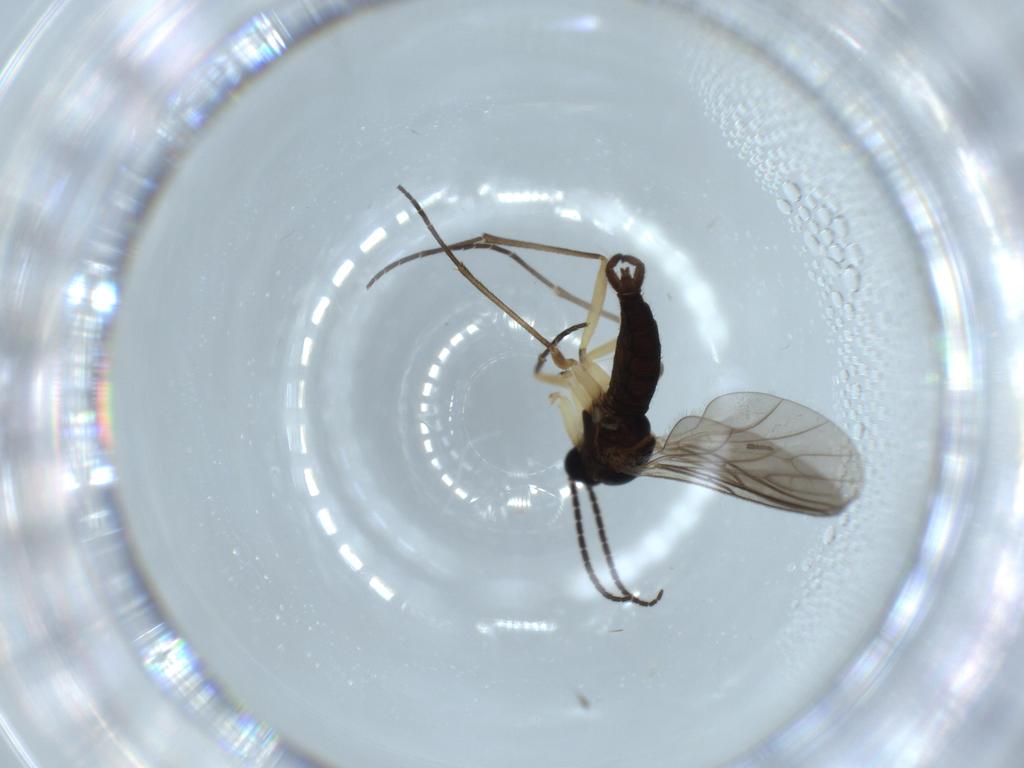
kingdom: Animalia
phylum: Arthropoda
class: Insecta
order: Diptera
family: Sciaridae
